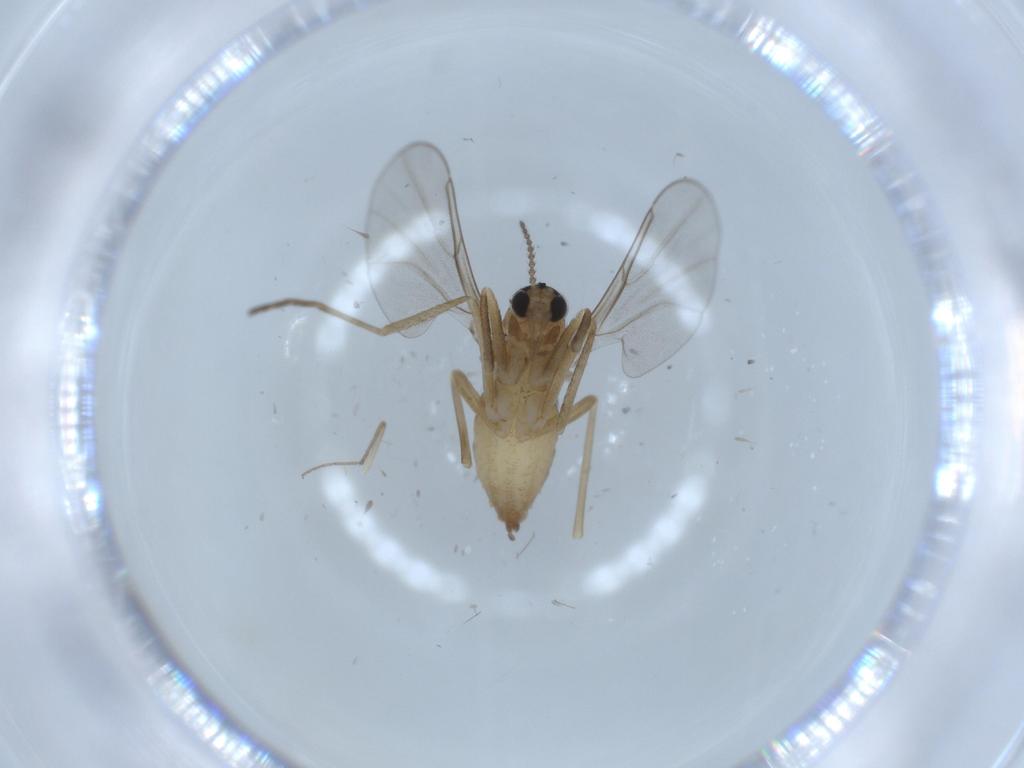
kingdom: Animalia
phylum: Arthropoda
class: Insecta
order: Diptera
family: Cecidomyiidae
